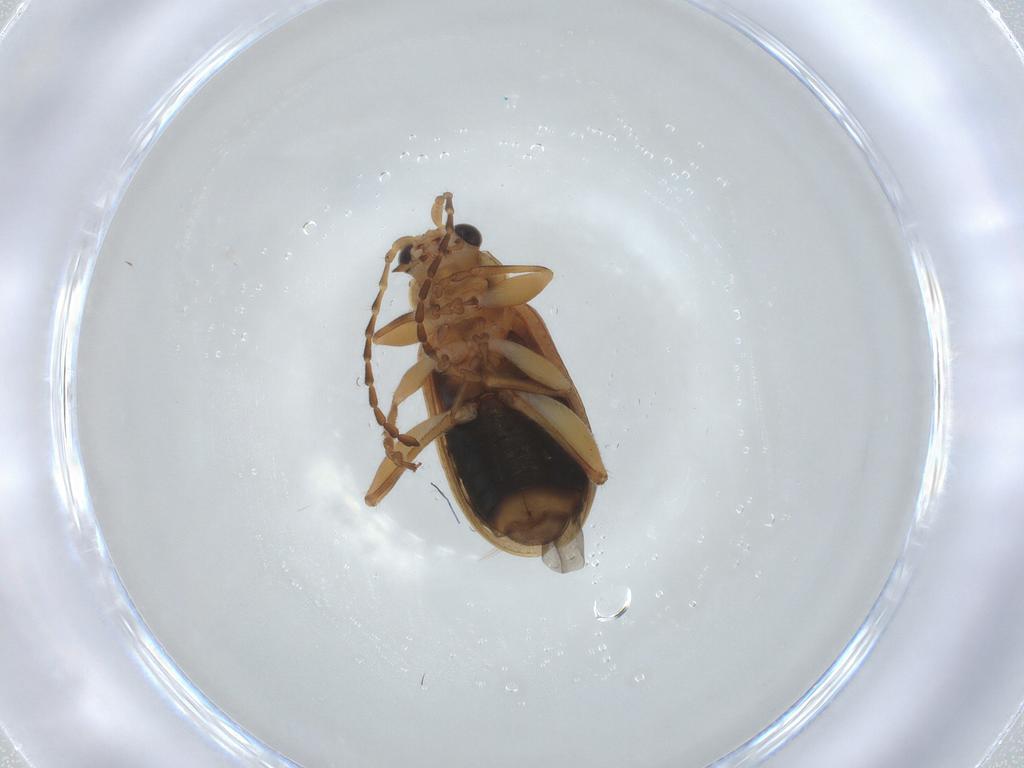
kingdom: Animalia
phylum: Arthropoda
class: Insecta
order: Coleoptera
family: Chrysomelidae
